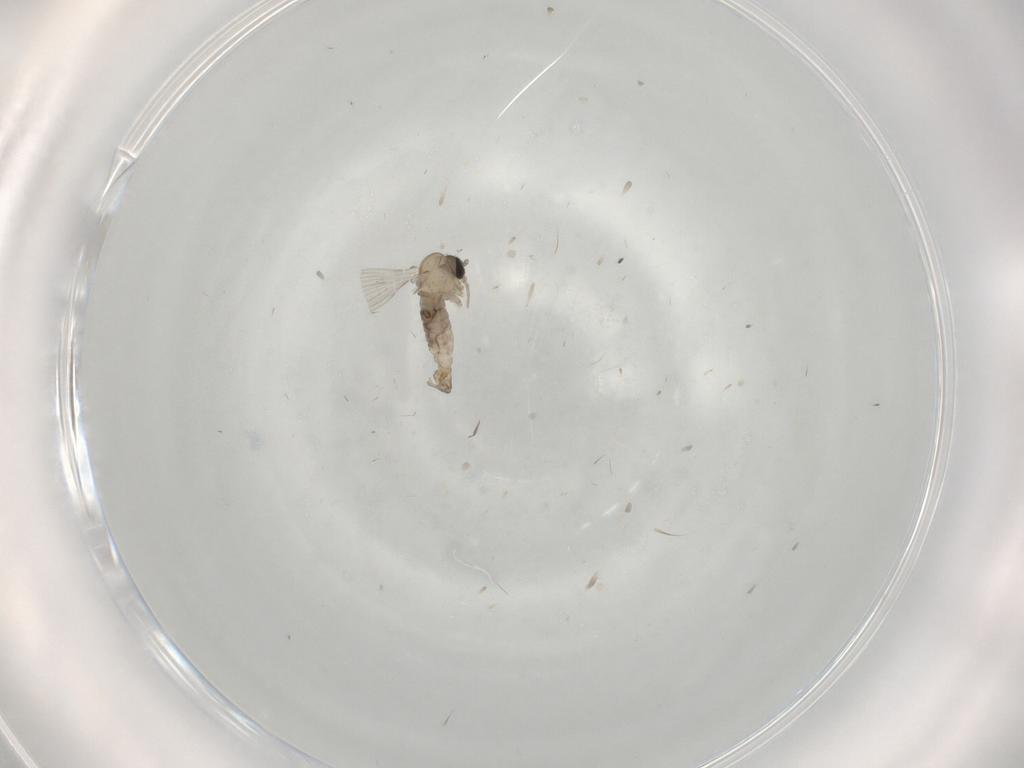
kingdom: Animalia
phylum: Arthropoda
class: Insecta
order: Diptera
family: Psychodidae
